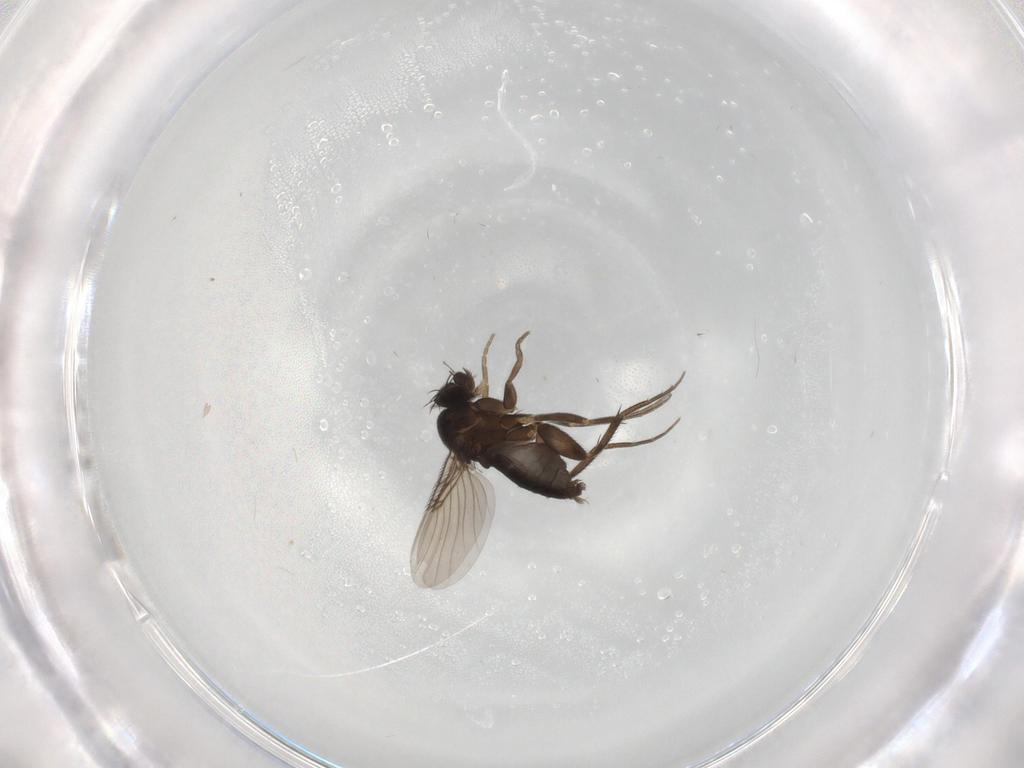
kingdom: Animalia
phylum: Arthropoda
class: Insecta
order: Diptera
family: Sciaridae
